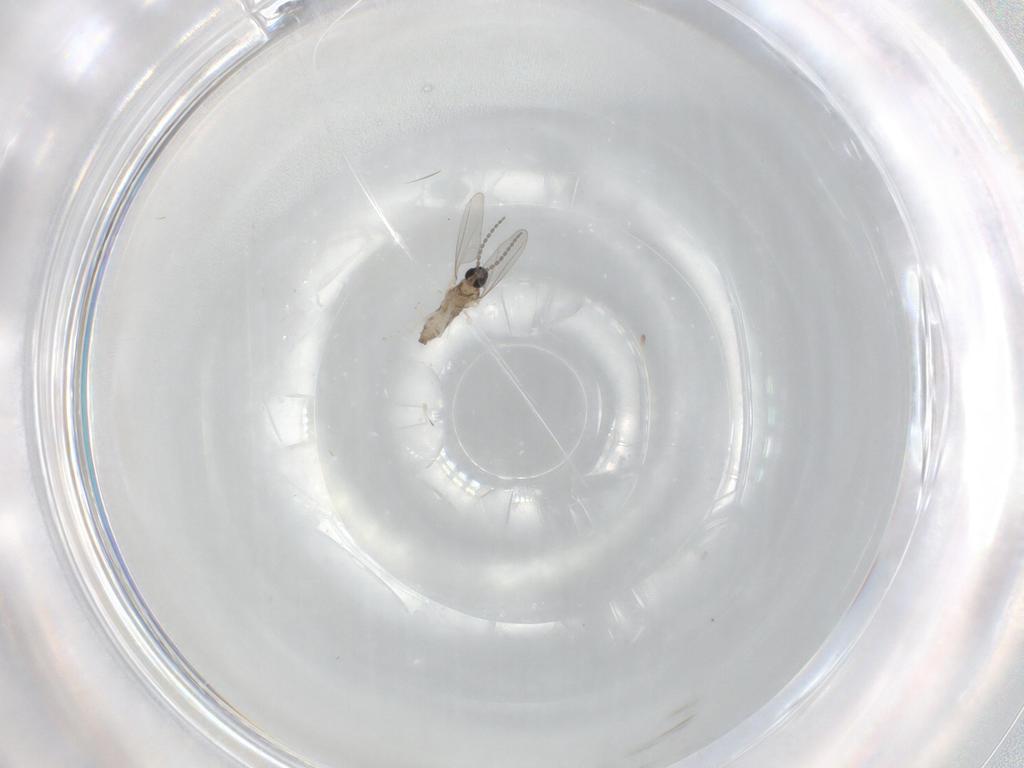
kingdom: Animalia
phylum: Arthropoda
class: Insecta
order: Diptera
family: Cecidomyiidae
